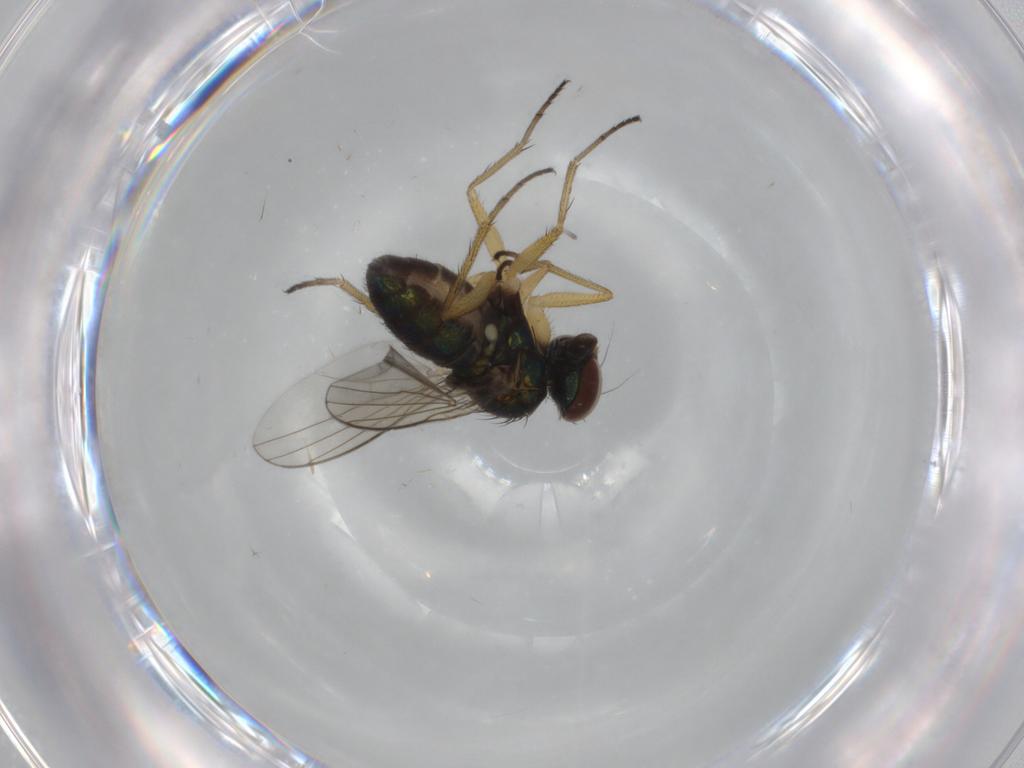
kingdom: Animalia
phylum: Arthropoda
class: Insecta
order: Diptera
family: Dolichopodidae
